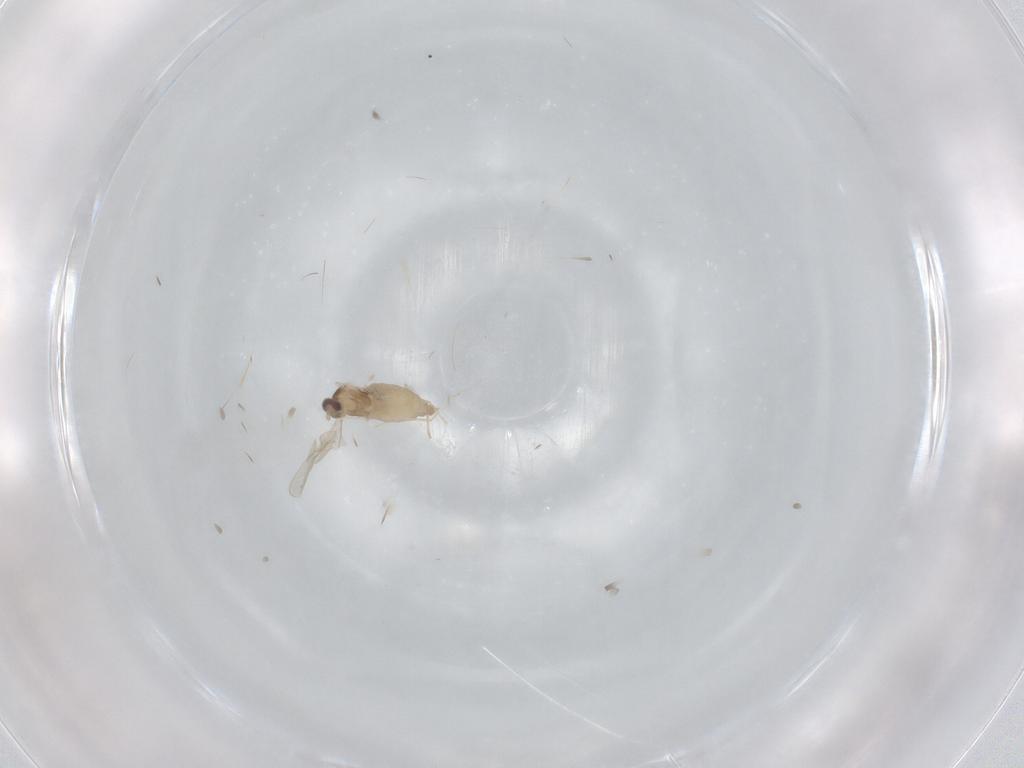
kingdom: Animalia
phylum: Arthropoda
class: Insecta
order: Diptera
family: Cecidomyiidae
